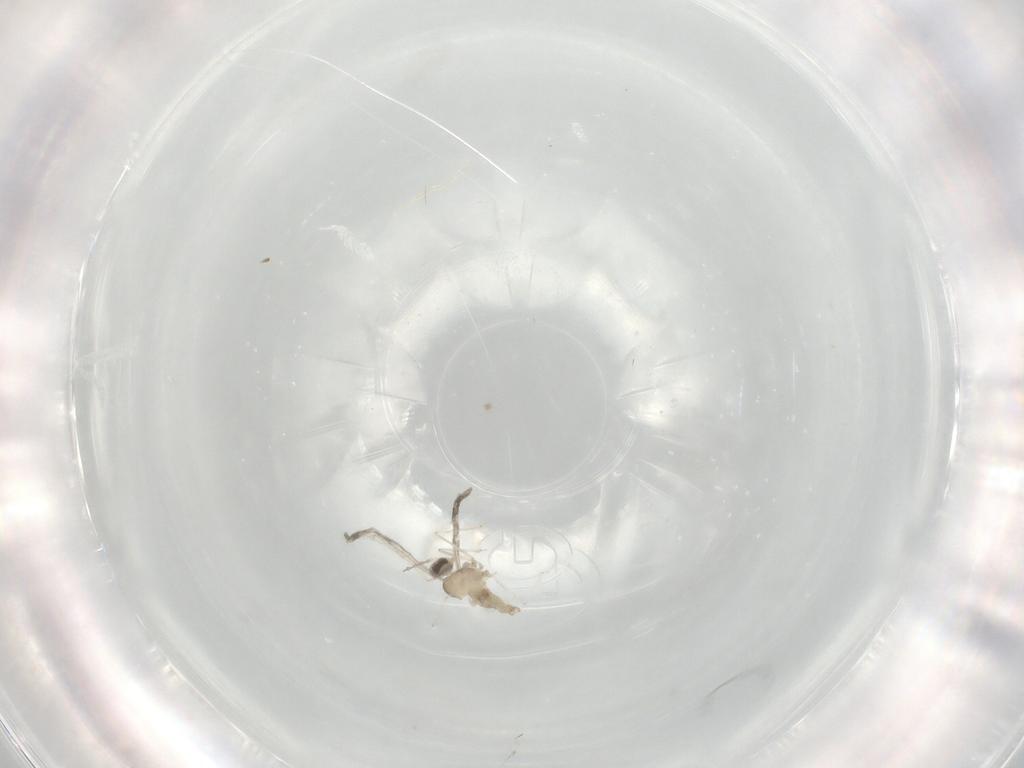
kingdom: Animalia
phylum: Arthropoda
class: Insecta
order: Diptera
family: Cecidomyiidae
